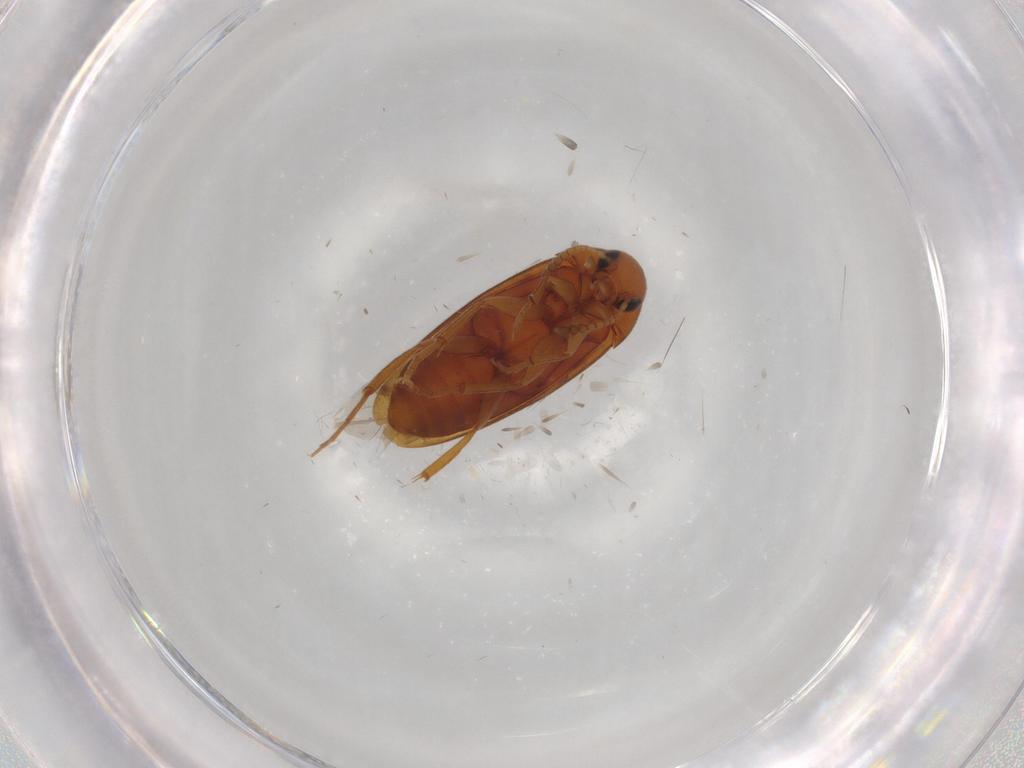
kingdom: Animalia
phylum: Arthropoda
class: Insecta
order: Coleoptera
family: Scraptiidae
